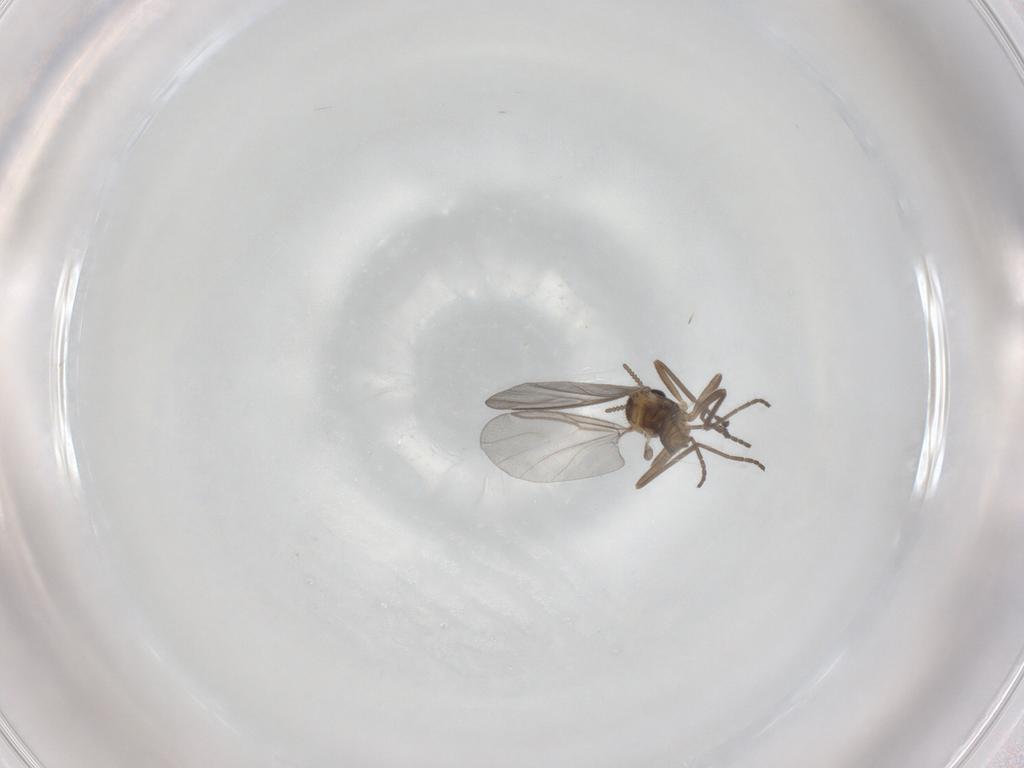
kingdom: Animalia
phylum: Arthropoda
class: Insecta
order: Diptera
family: Cecidomyiidae
